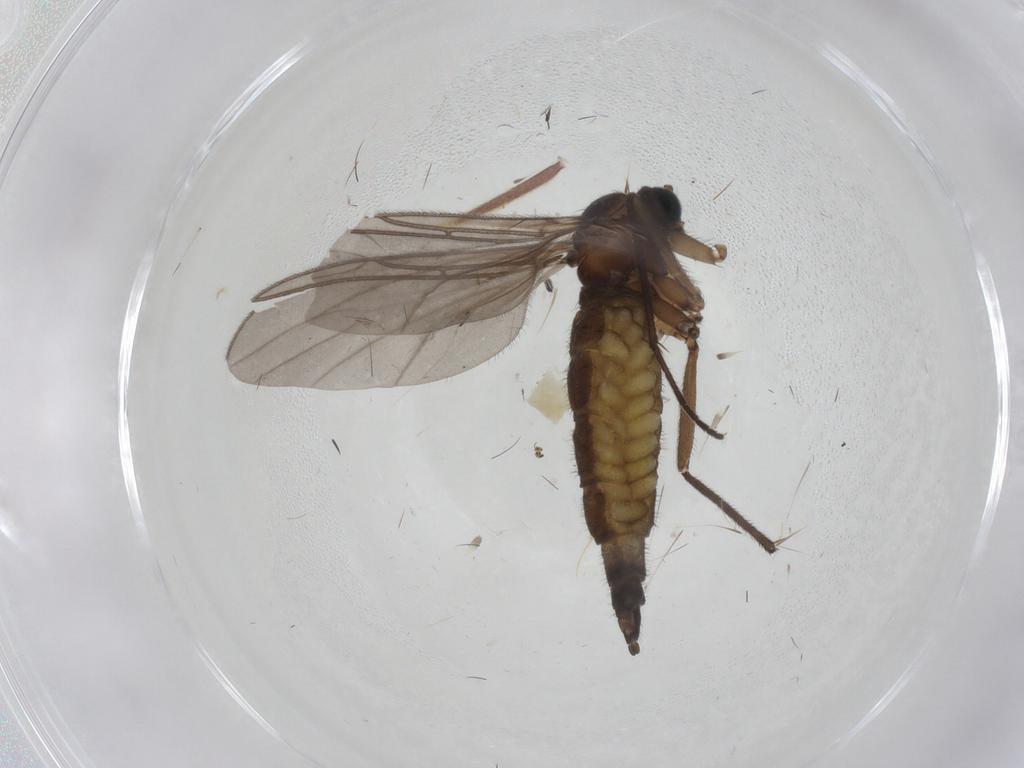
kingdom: Animalia
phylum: Arthropoda
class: Insecta
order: Diptera
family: Sciaridae
